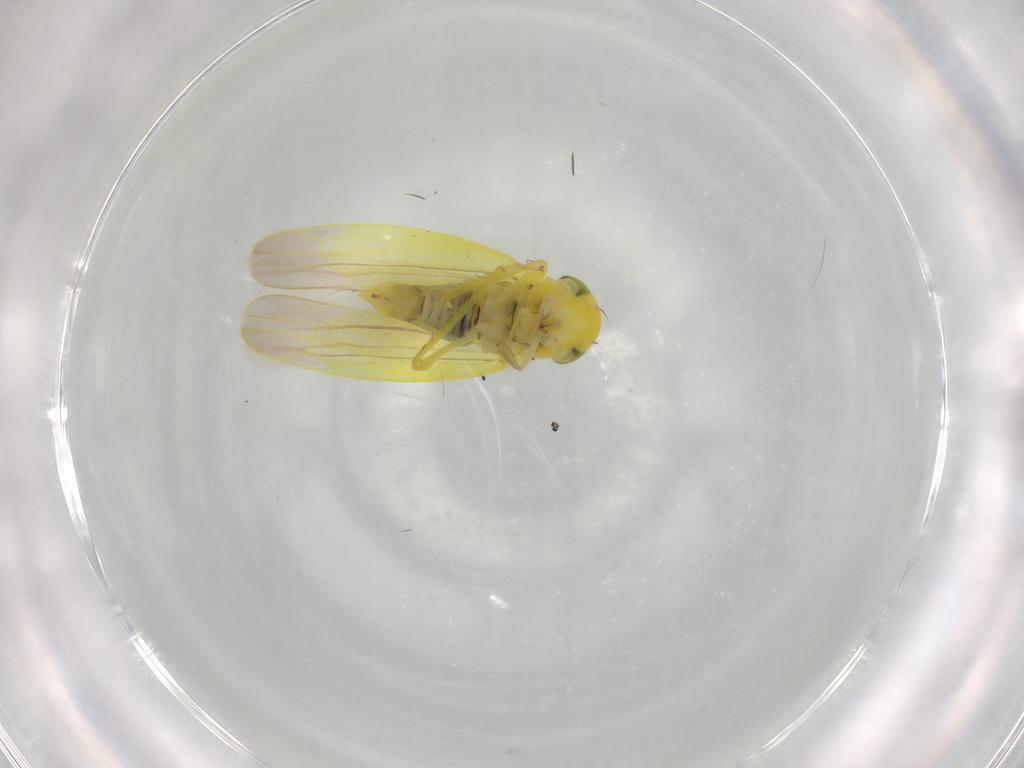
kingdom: Animalia
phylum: Arthropoda
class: Insecta
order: Hemiptera
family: Cicadellidae
